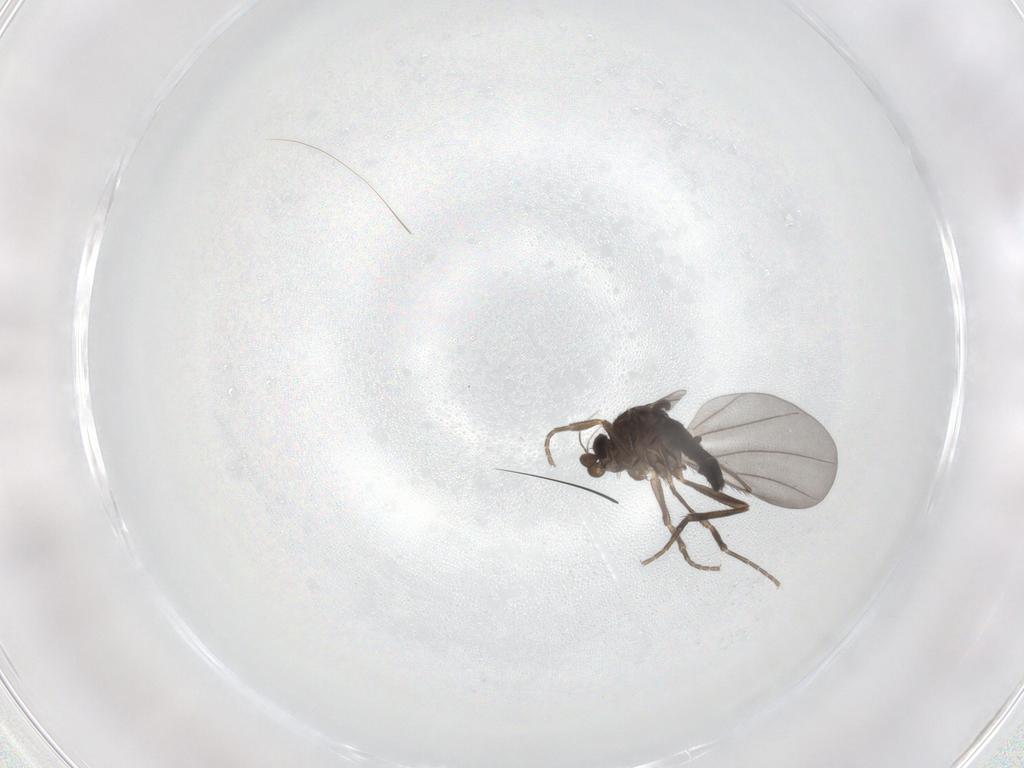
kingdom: Animalia
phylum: Arthropoda
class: Insecta
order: Diptera
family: Phoridae
